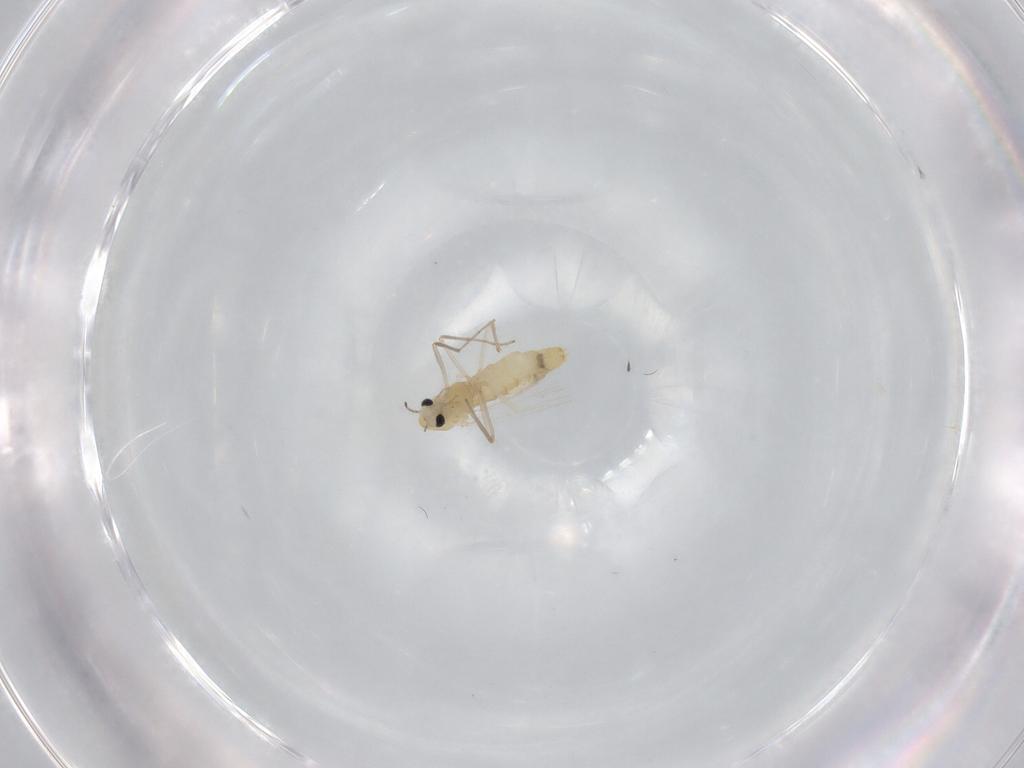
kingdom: Animalia
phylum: Arthropoda
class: Insecta
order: Diptera
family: Chironomidae
